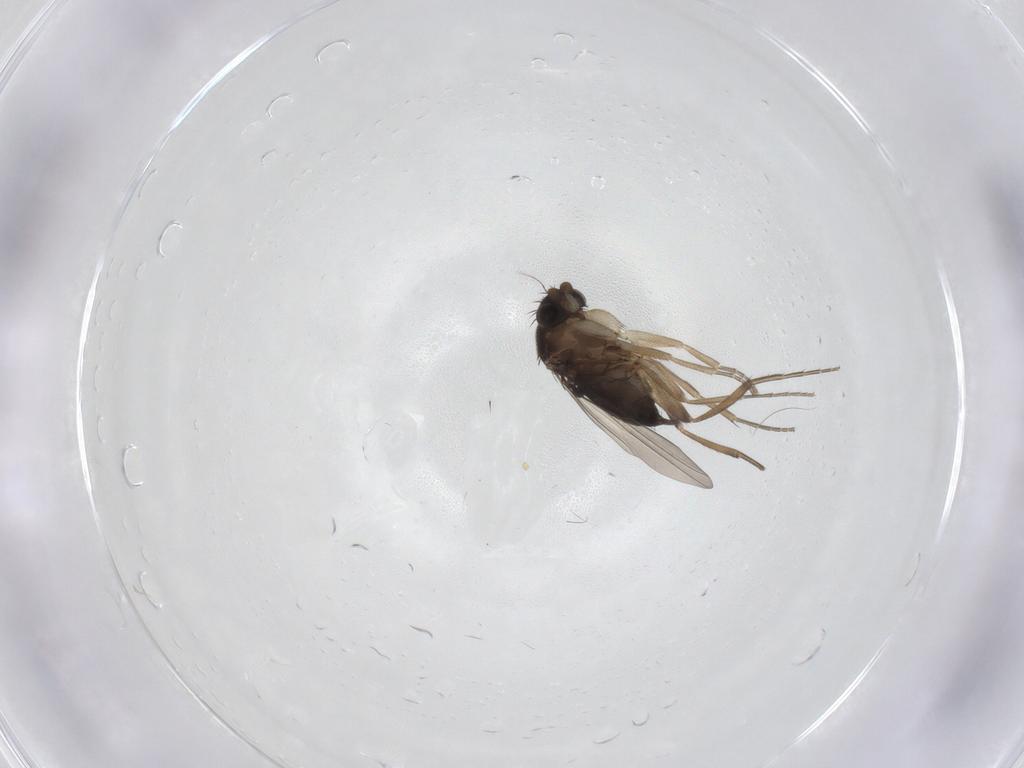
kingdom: Animalia
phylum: Arthropoda
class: Insecta
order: Diptera
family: Phoridae
